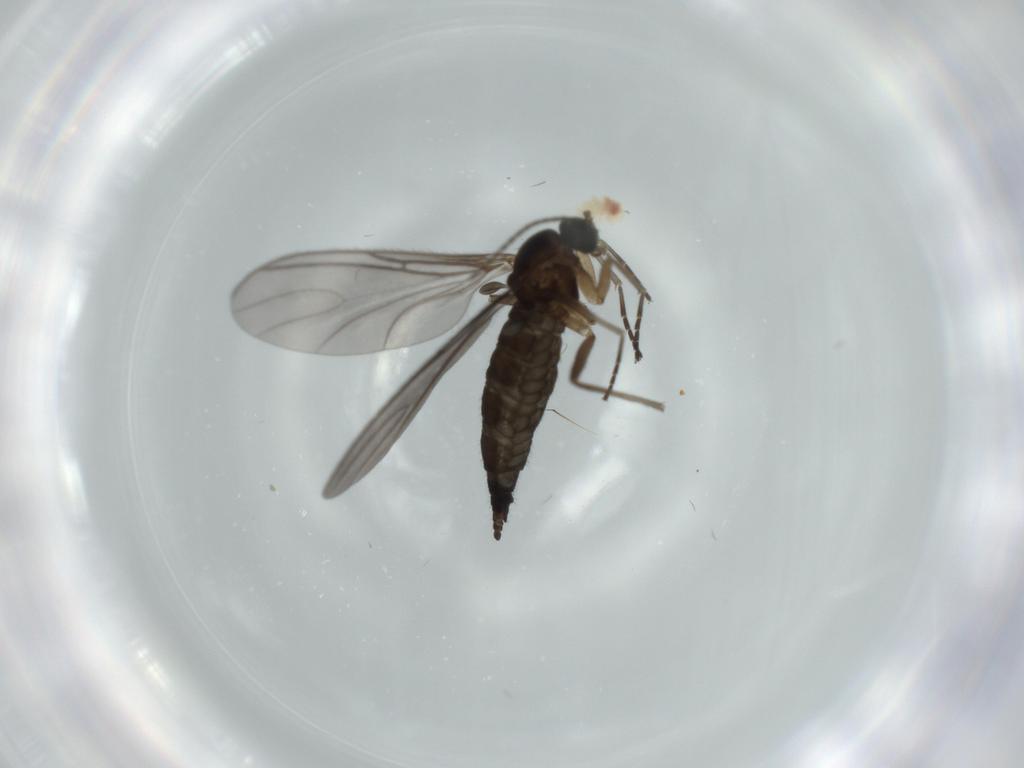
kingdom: Animalia
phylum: Arthropoda
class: Insecta
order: Diptera
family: Sciaridae
